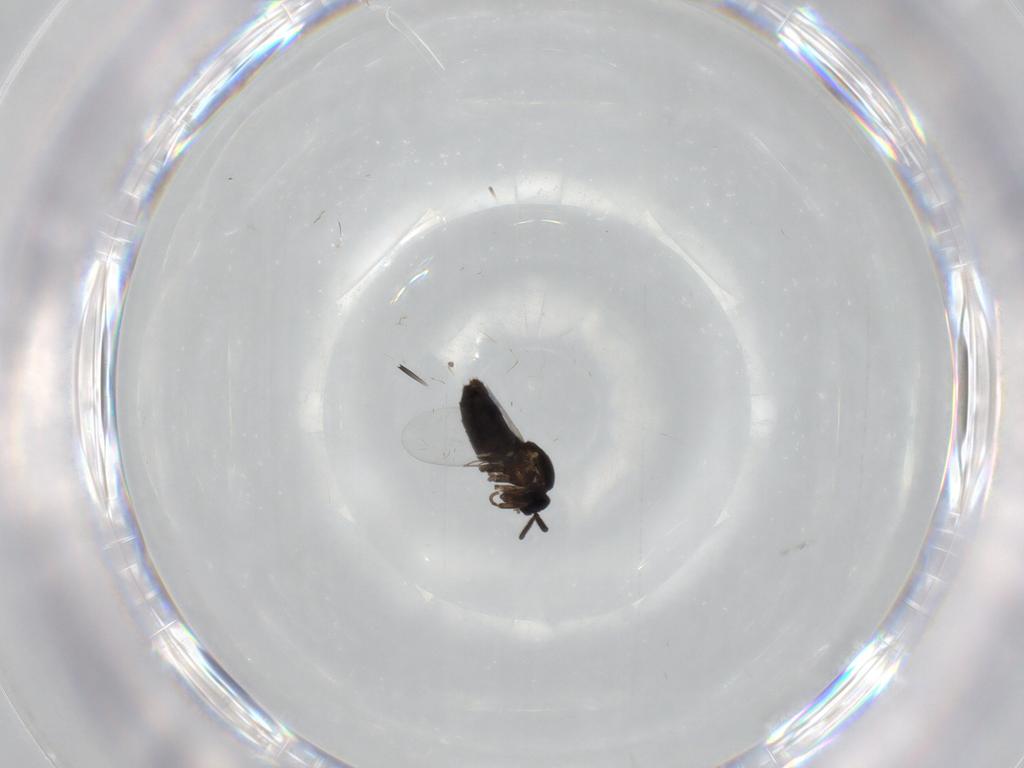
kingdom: Animalia
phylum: Arthropoda
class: Insecta
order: Diptera
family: Calliphoridae
